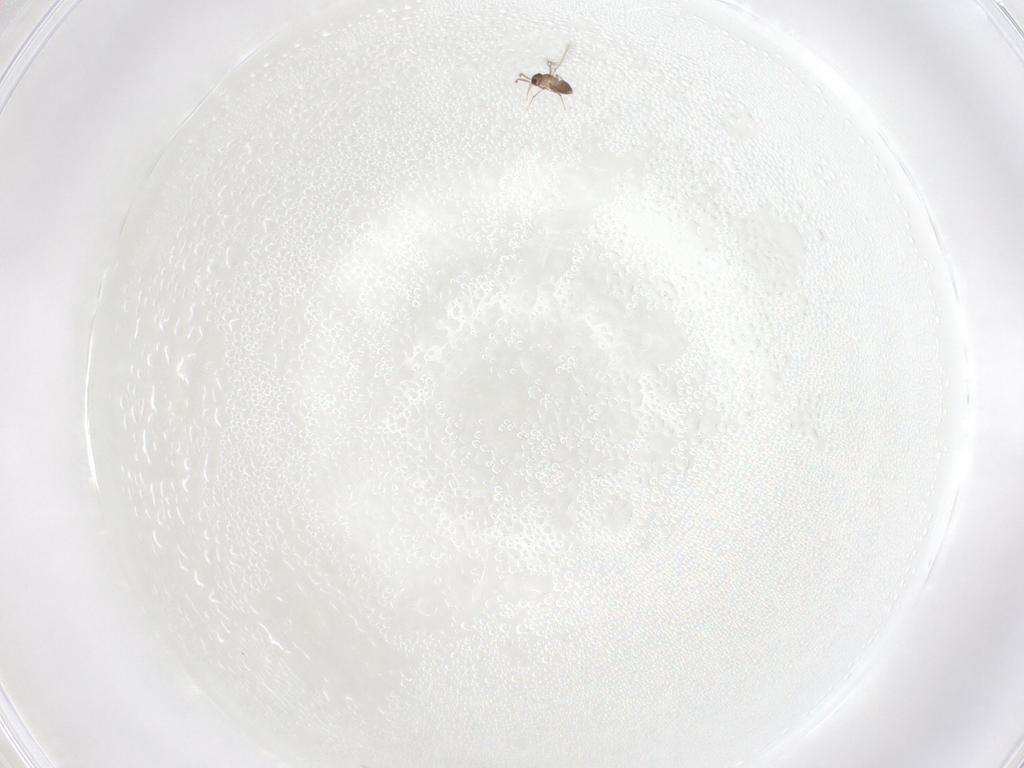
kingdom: Animalia
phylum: Arthropoda
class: Insecta
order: Hymenoptera
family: Mymaridae
